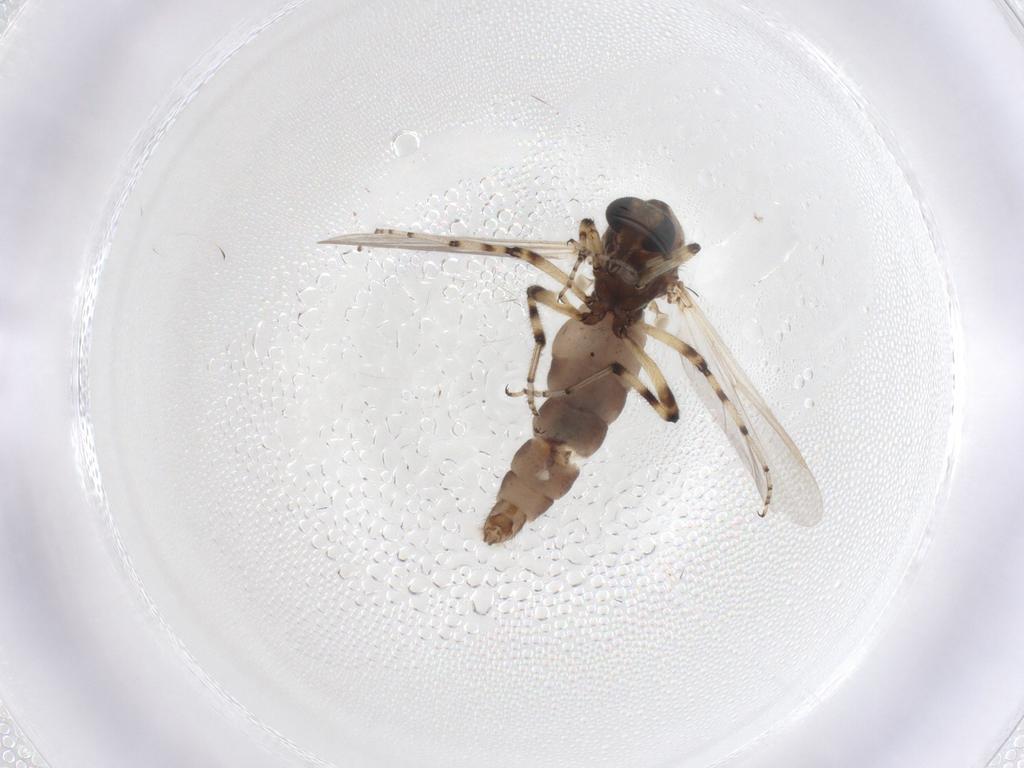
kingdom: Animalia
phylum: Arthropoda
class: Insecta
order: Diptera
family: Ceratopogonidae
